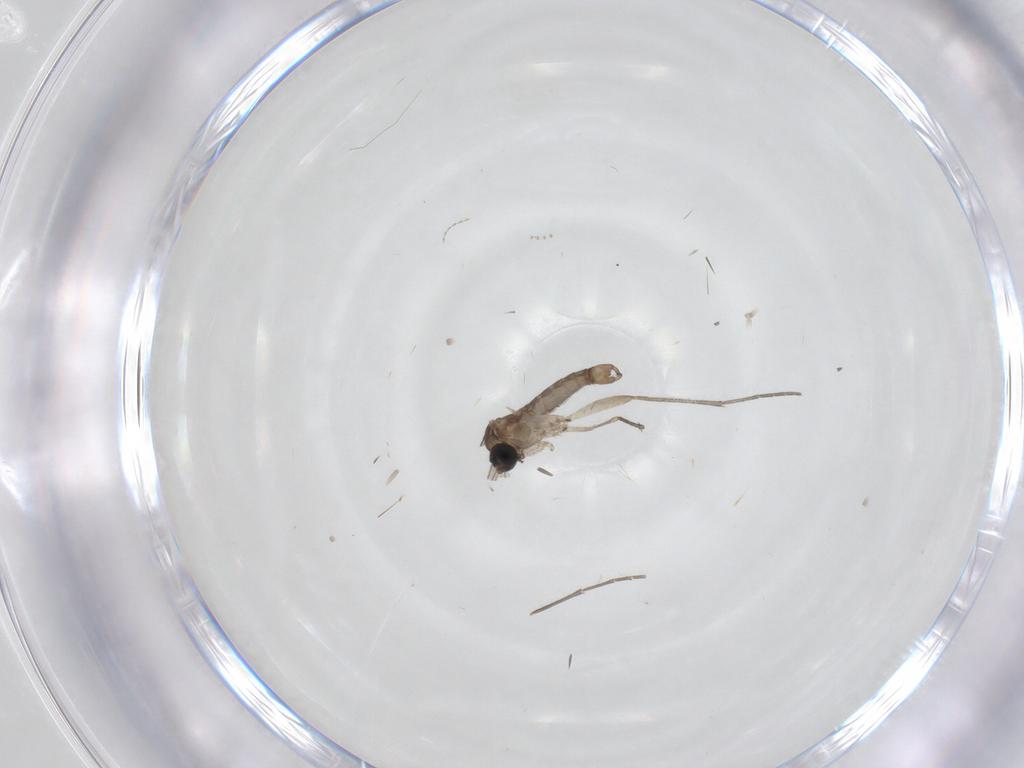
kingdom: Animalia
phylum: Arthropoda
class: Insecta
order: Diptera
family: Sciaridae
